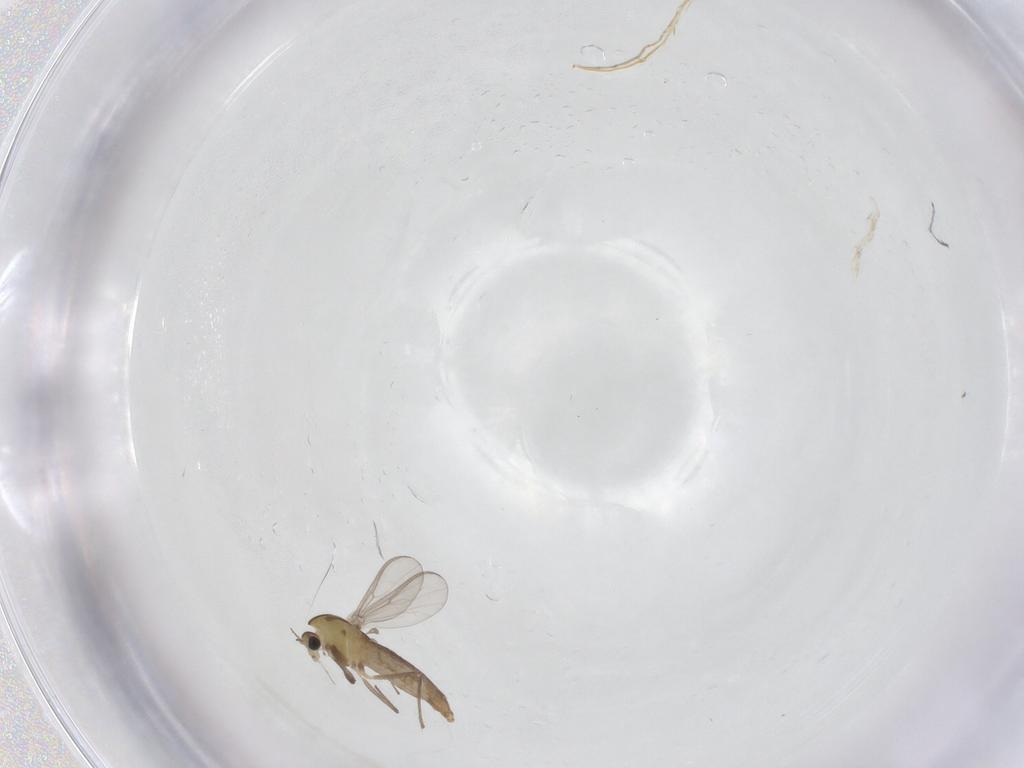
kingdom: Animalia
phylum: Arthropoda
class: Insecta
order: Diptera
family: Chironomidae
